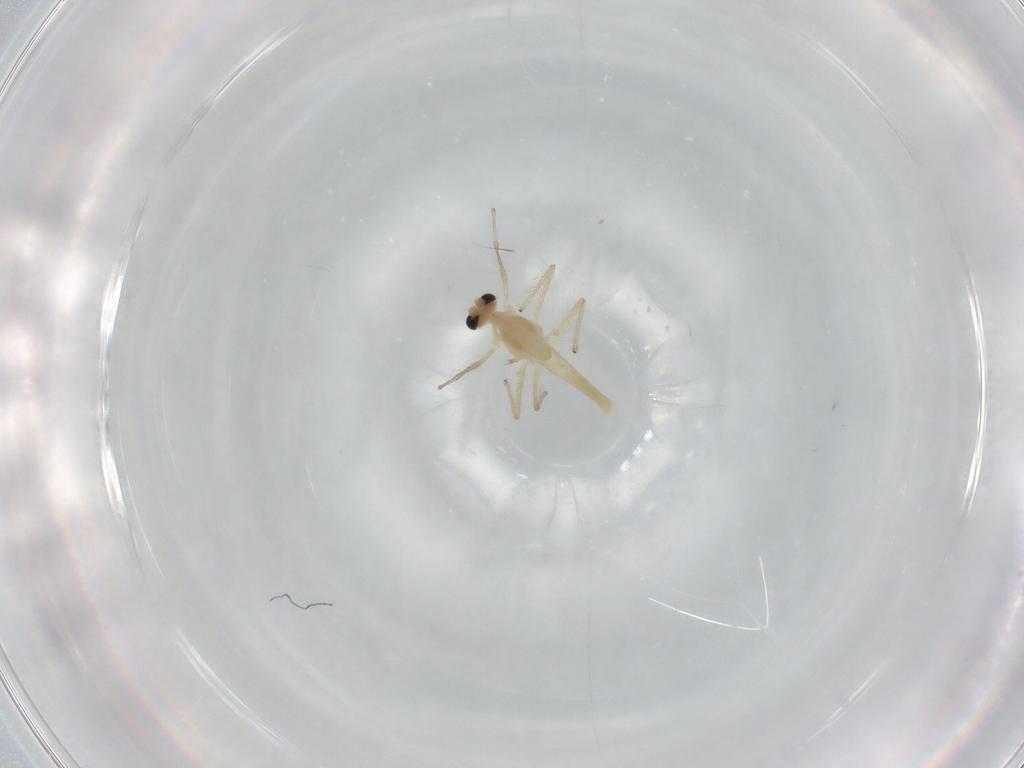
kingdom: Animalia
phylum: Arthropoda
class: Insecta
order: Diptera
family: Chironomidae
